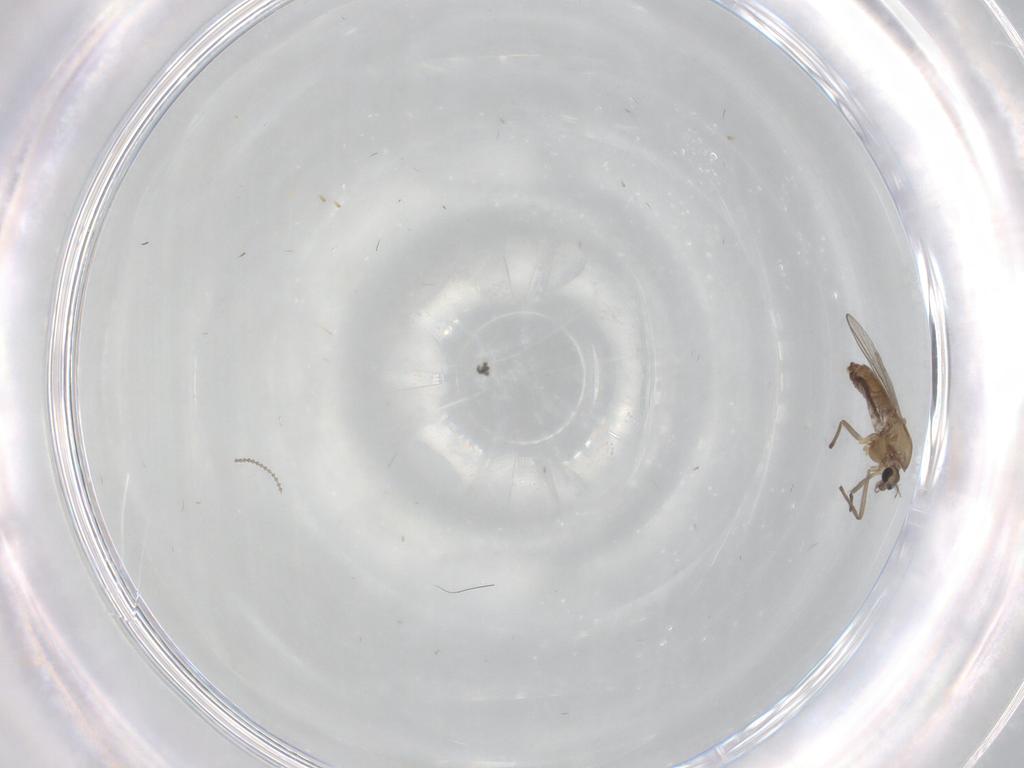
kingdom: Animalia
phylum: Arthropoda
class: Insecta
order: Diptera
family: Chironomidae
